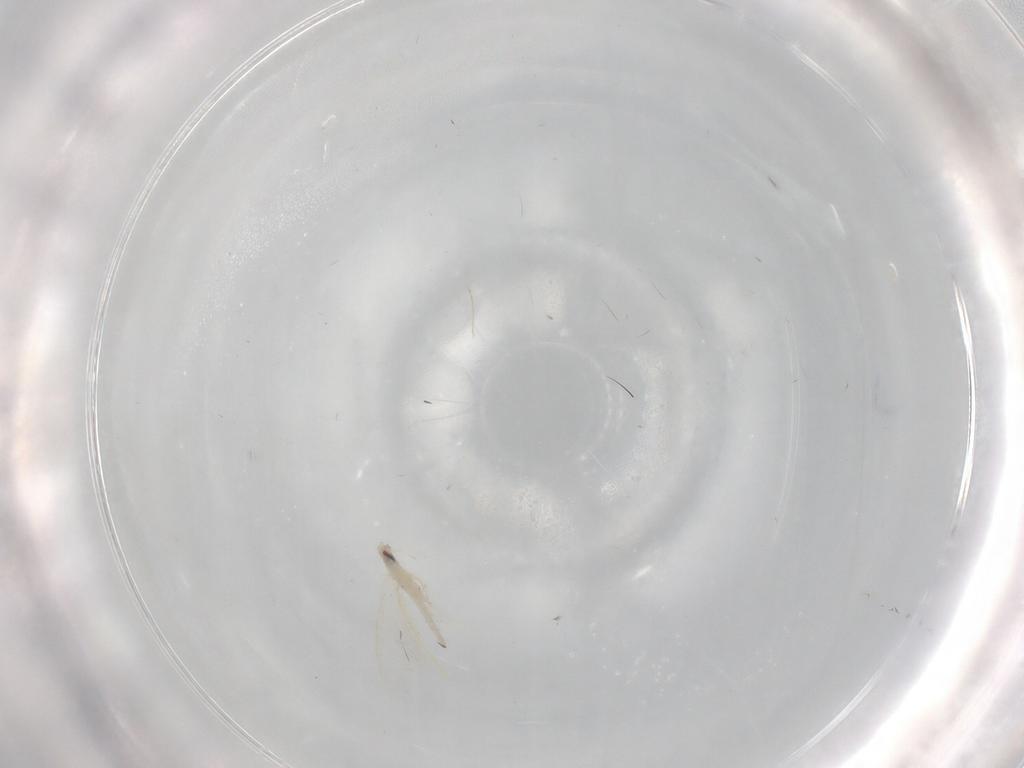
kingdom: Animalia
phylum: Arthropoda
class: Insecta
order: Hemiptera
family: Aleyrodidae
